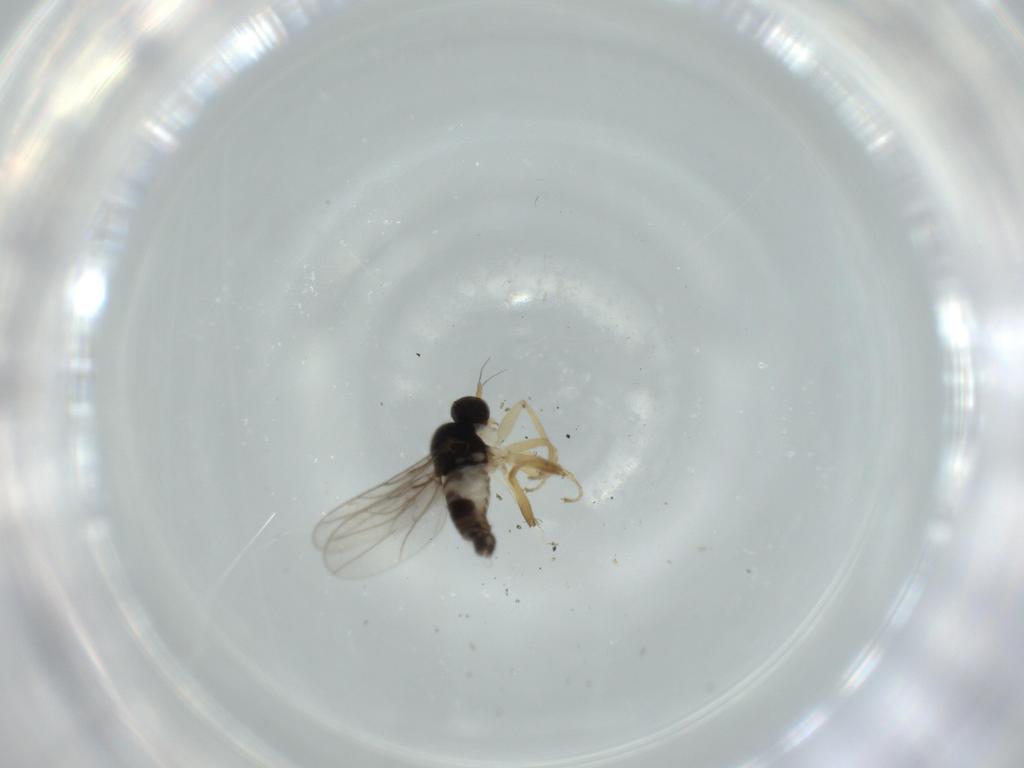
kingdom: Animalia
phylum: Arthropoda
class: Insecta
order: Diptera
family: Hybotidae
